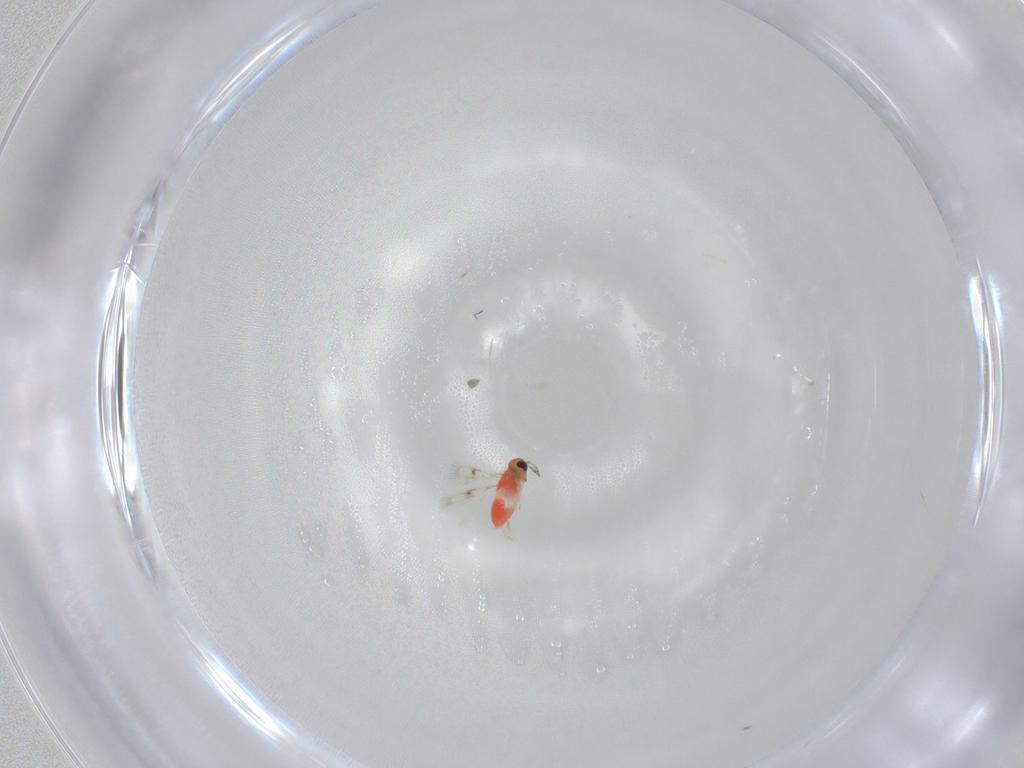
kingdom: Animalia
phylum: Arthropoda
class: Insecta
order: Hymenoptera
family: Trichogrammatidae
